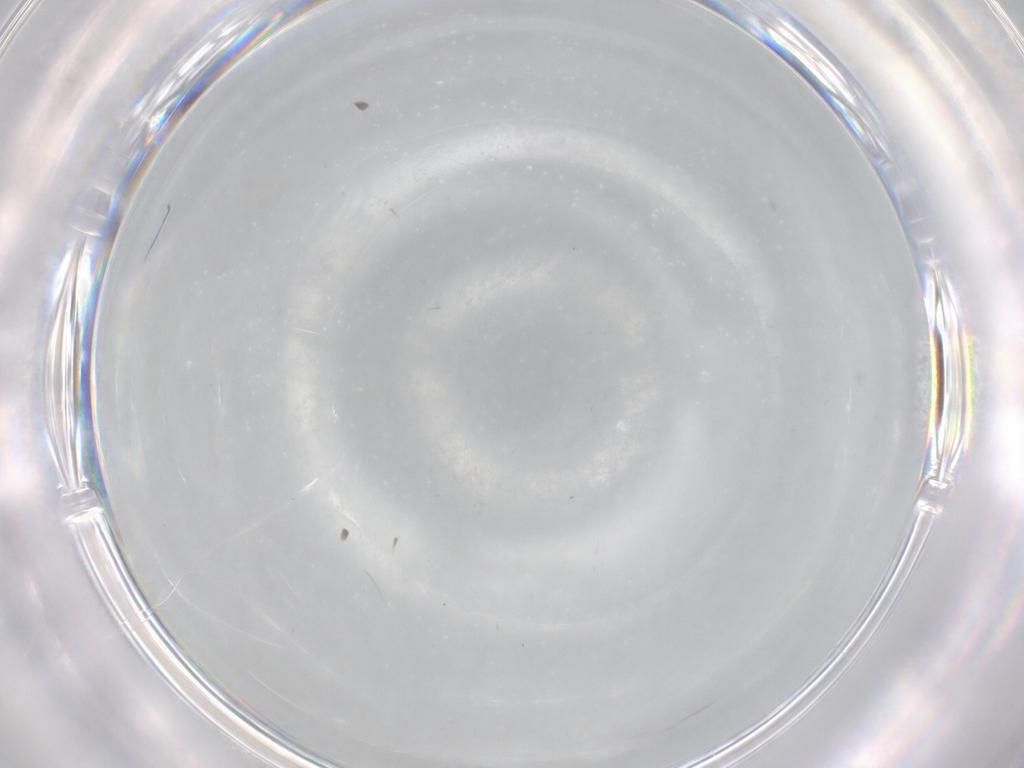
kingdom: Animalia
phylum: Arthropoda
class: Insecta
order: Diptera
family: Cecidomyiidae
